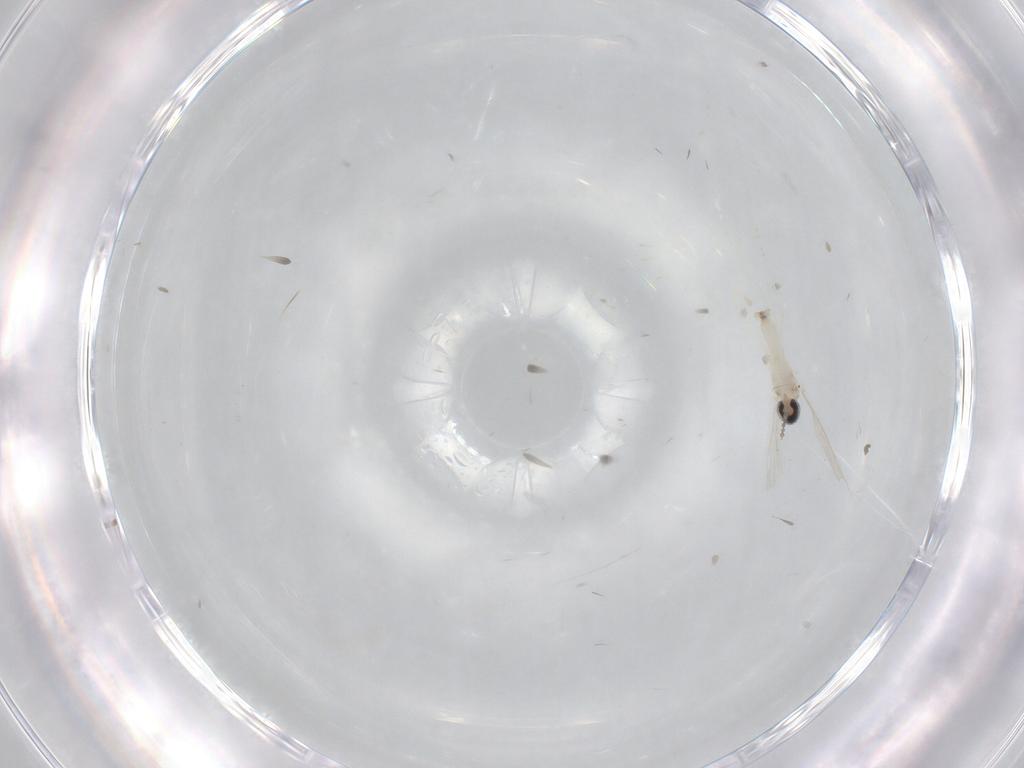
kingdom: Animalia
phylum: Arthropoda
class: Insecta
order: Diptera
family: Cecidomyiidae
